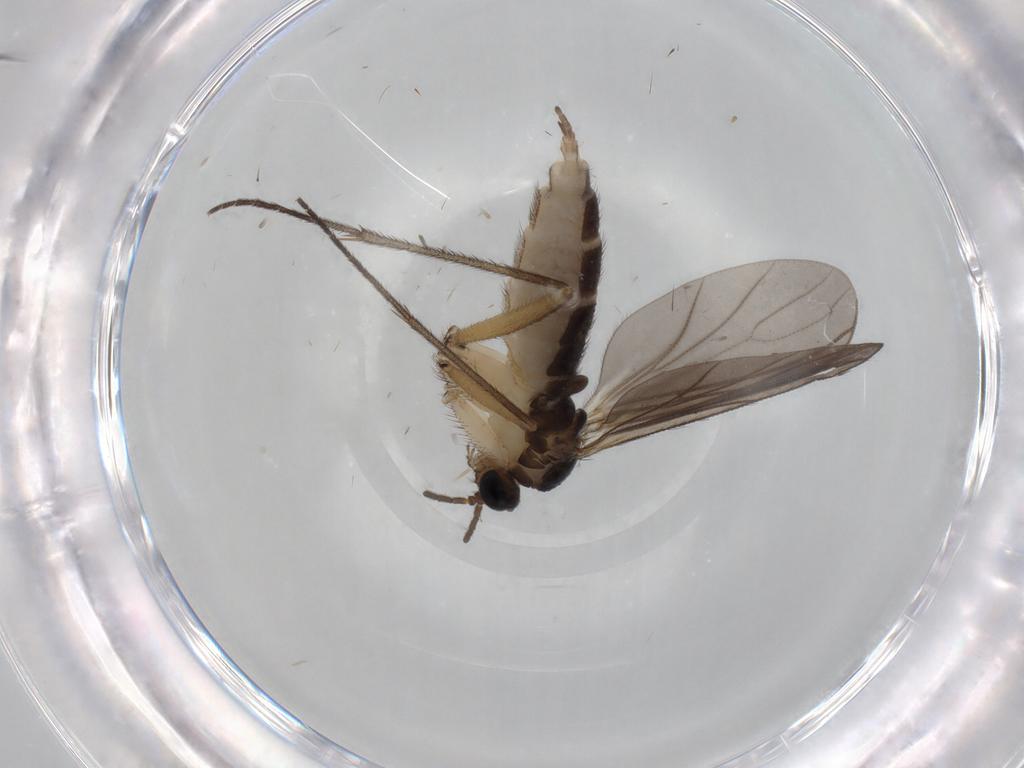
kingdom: Animalia
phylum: Arthropoda
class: Insecta
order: Diptera
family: Sciaridae
